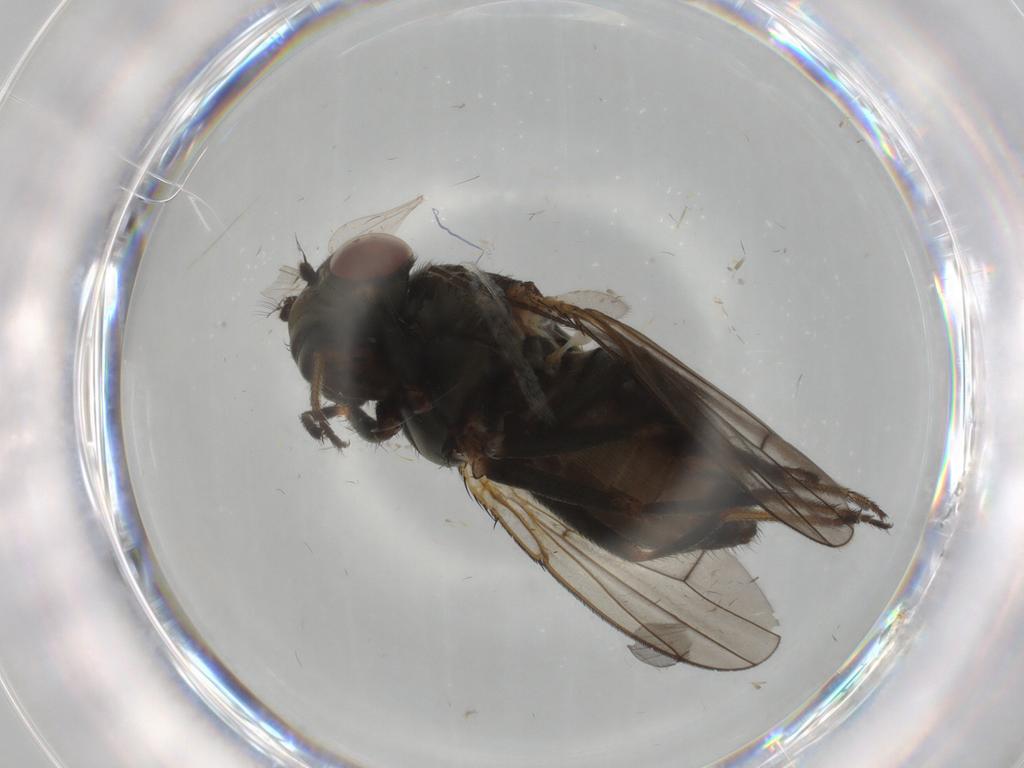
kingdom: Animalia
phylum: Arthropoda
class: Insecta
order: Diptera
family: Ephydridae
